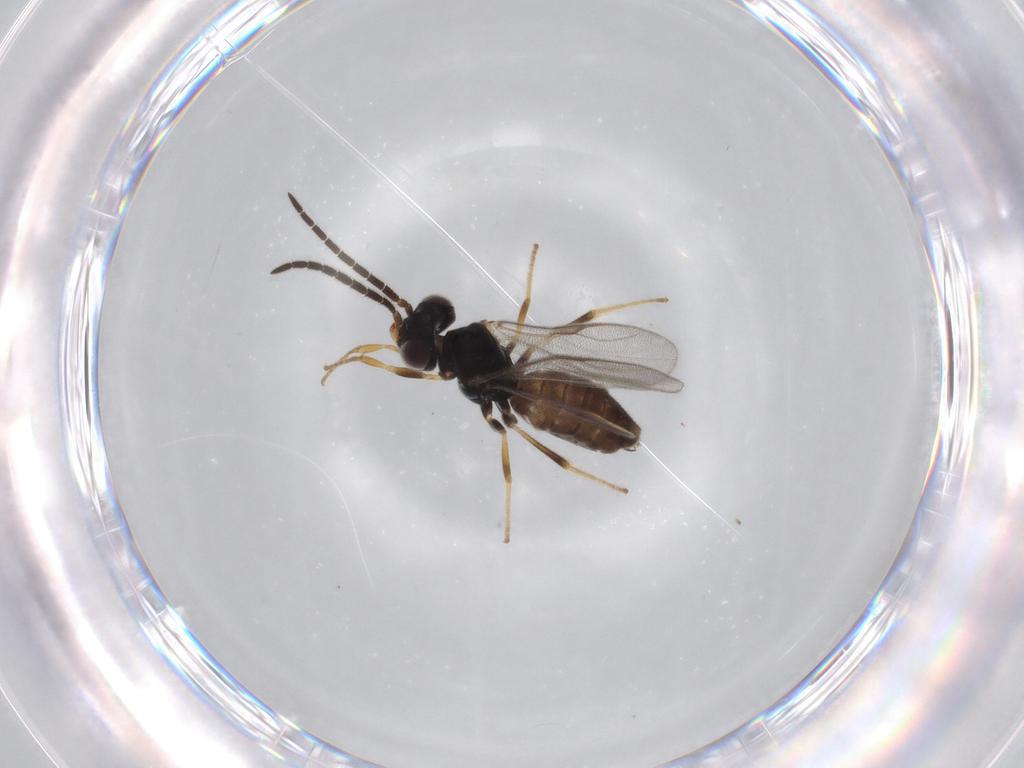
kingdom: Animalia
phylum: Arthropoda
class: Insecta
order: Hymenoptera
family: Dryinidae
